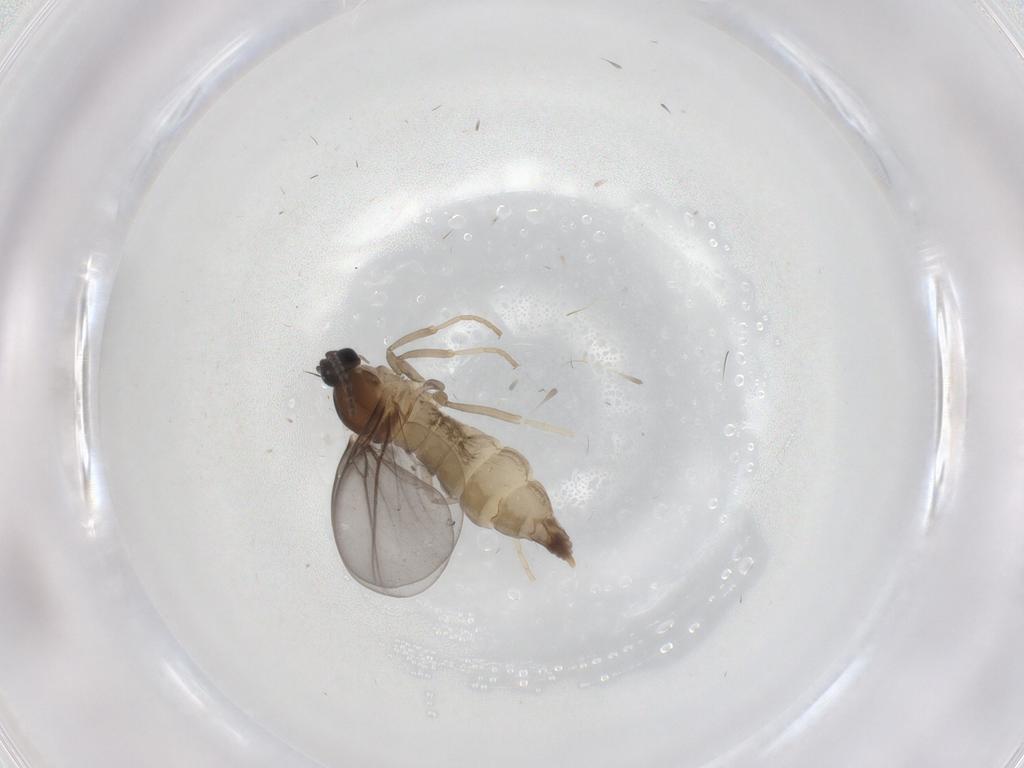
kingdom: Animalia
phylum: Arthropoda
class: Insecta
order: Diptera
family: Cecidomyiidae
